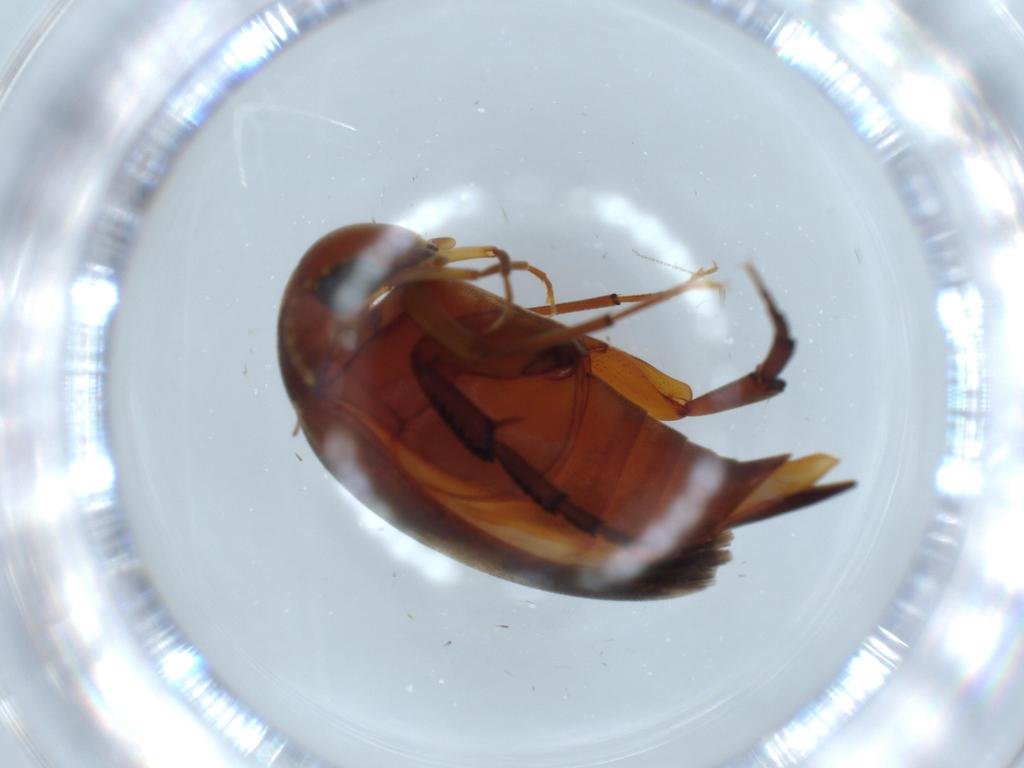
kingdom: Animalia
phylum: Arthropoda
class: Insecta
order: Coleoptera
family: Mordellidae
